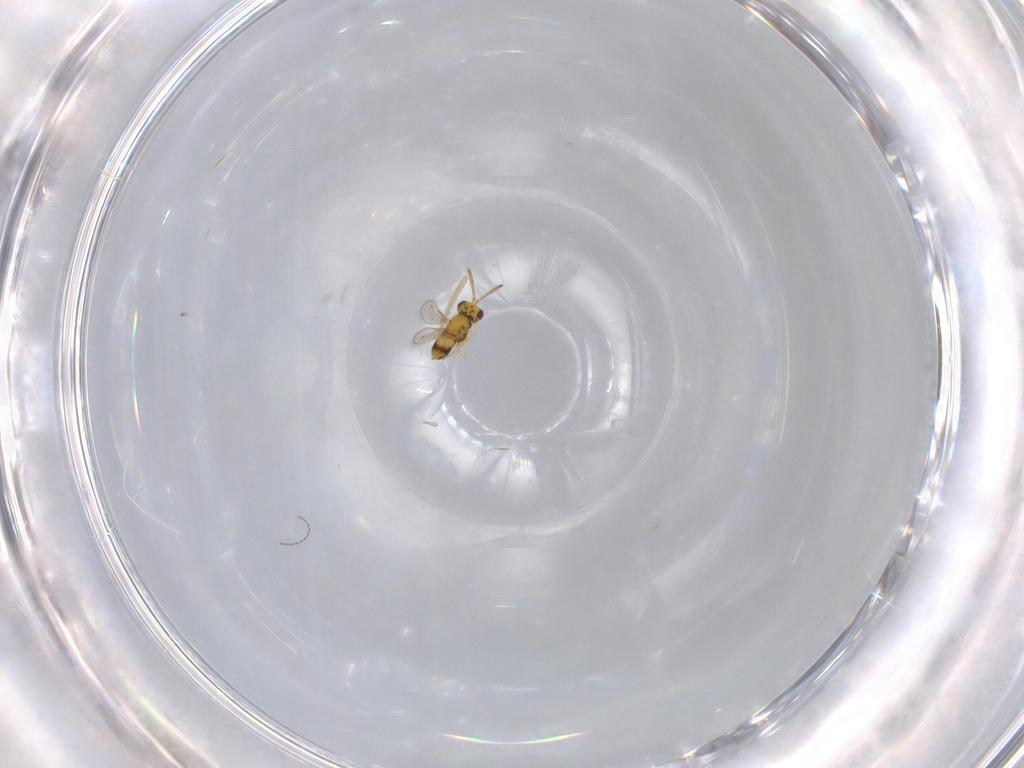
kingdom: Animalia
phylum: Arthropoda
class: Insecta
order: Hymenoptera
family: Aphelinidae
